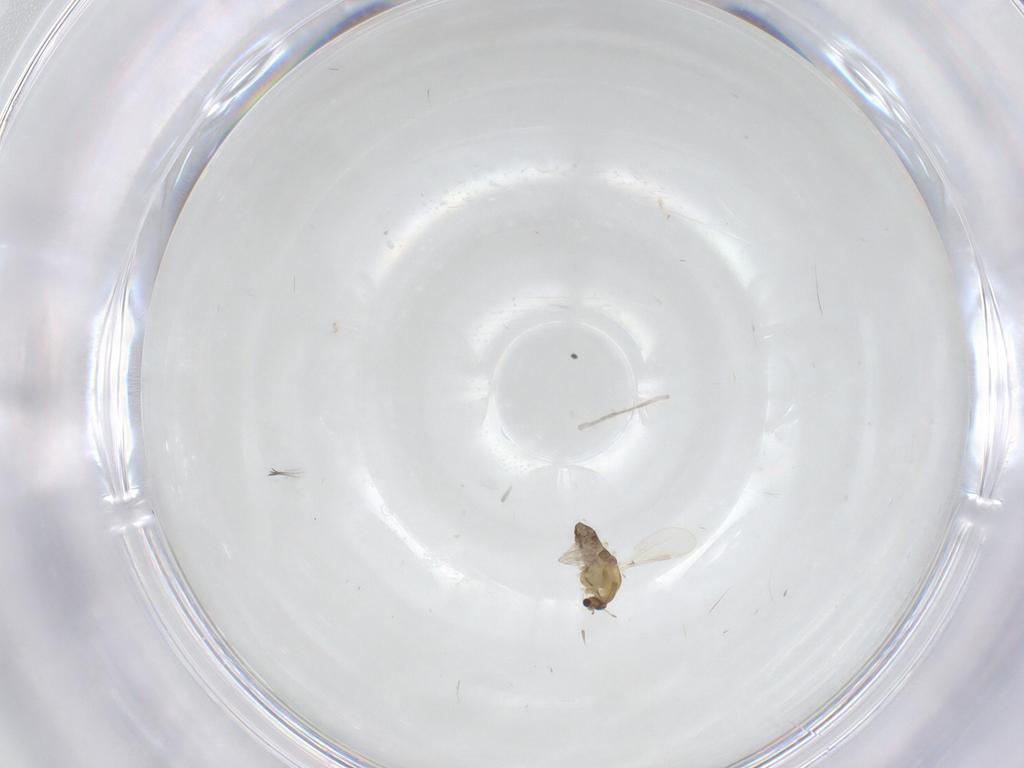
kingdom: Animalia
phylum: Arthropoda
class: Insecta
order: Diptera
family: Chironomidae
